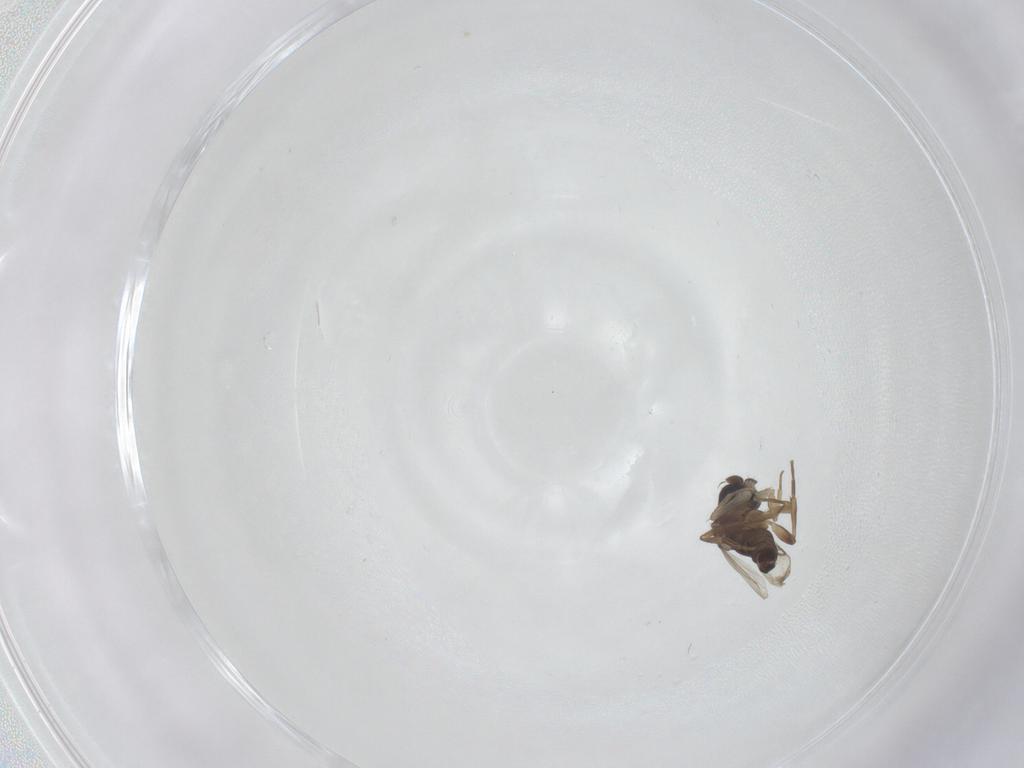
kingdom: Animalia
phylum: Arthropoda
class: Insecta
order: Diptera
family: Phoridae
